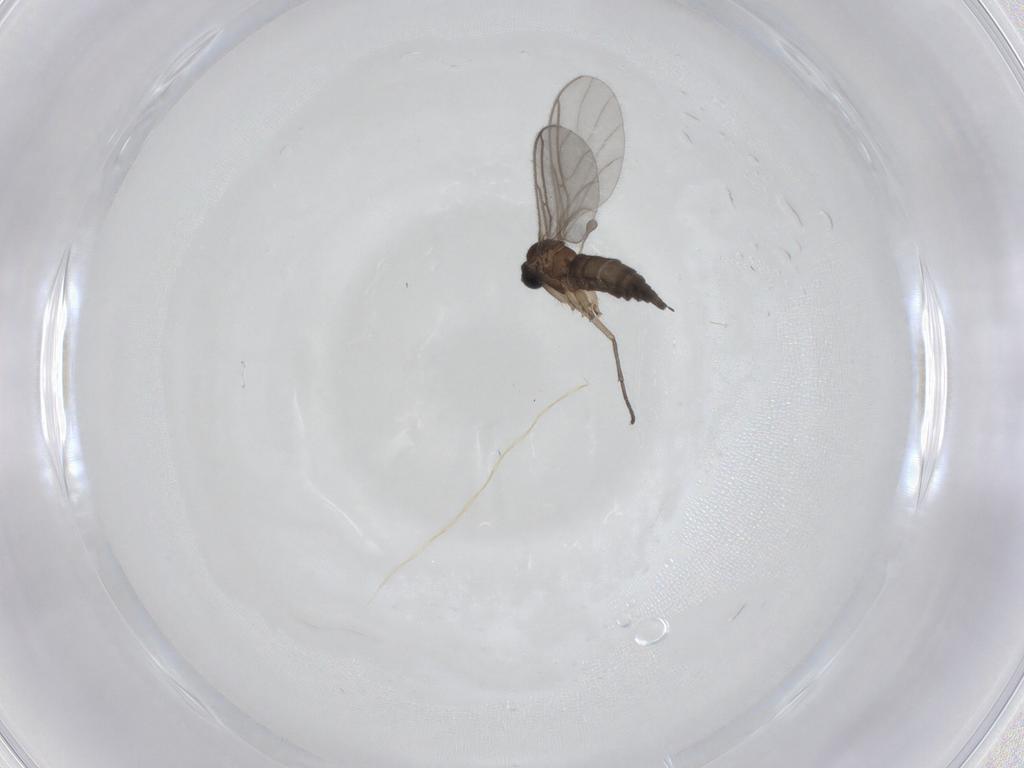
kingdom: Animalia
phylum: Arthropoda
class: Insecta
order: Diptera
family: Sciaridae
